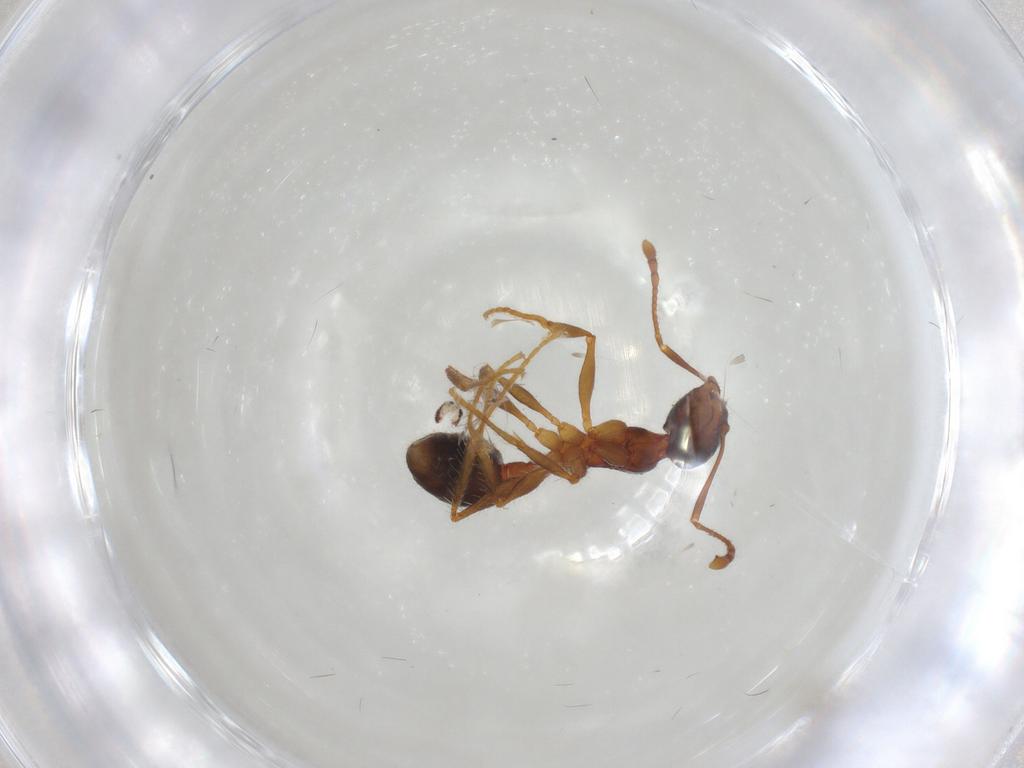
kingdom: Animalia
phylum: Arthropoda
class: Insecta
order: Hymenoptera
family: Formicidae
